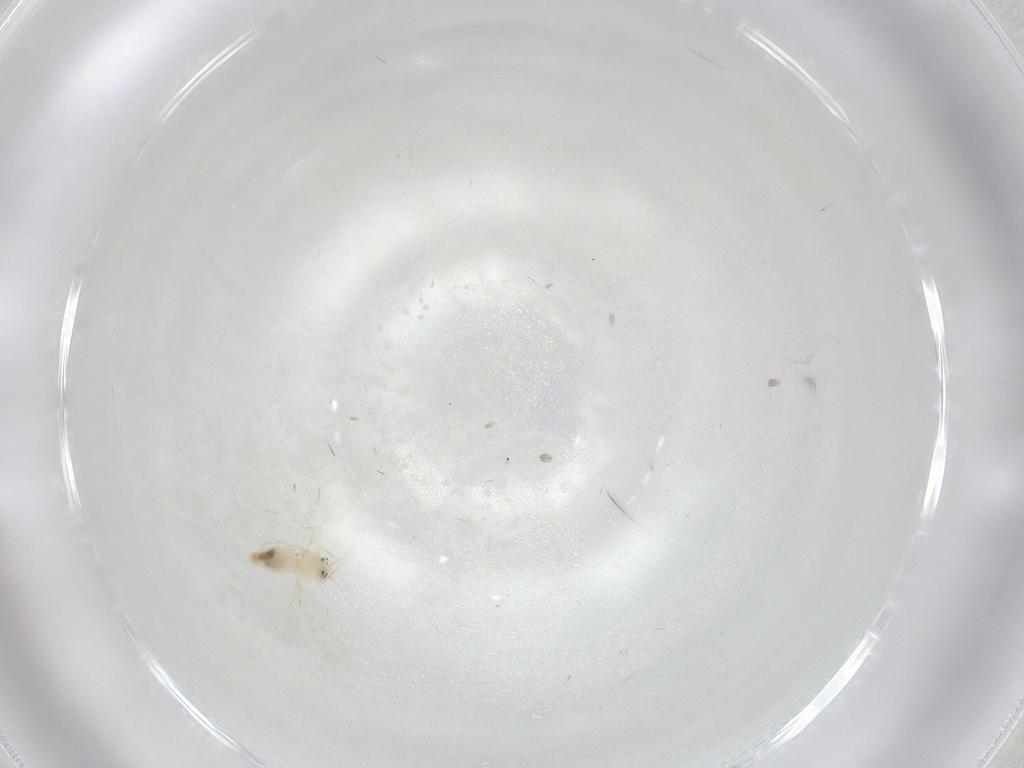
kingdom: Animalia
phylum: Arthropoda
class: Insecta
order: Hemiptera
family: Aleyrodidae
